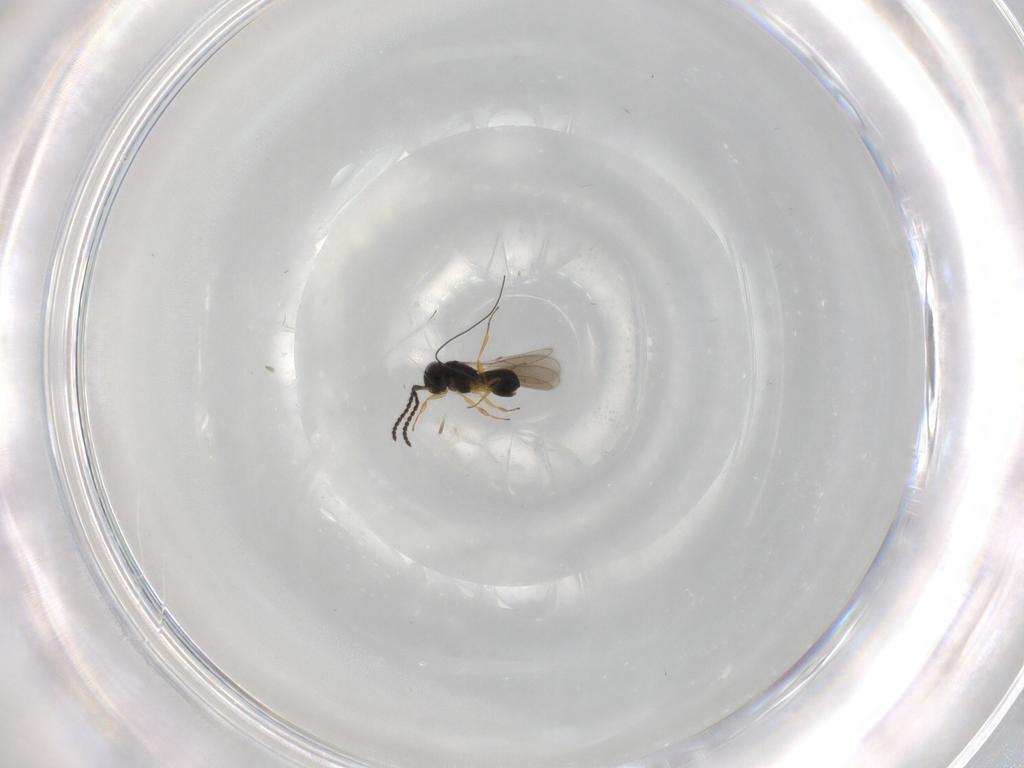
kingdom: Animalia
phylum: Arthropoda
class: Insecta
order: Hymenoptera
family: Scelionidae
